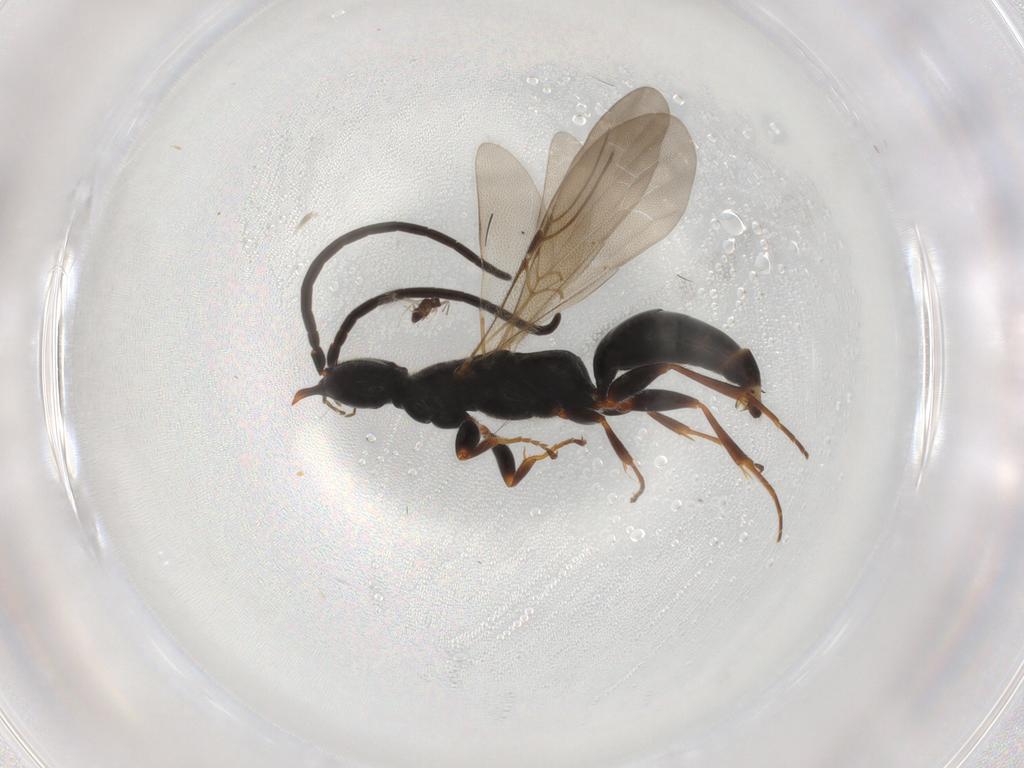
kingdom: Animalia
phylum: Arthropoda
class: Insecta
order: Hymenoptera
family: Bethylidae
